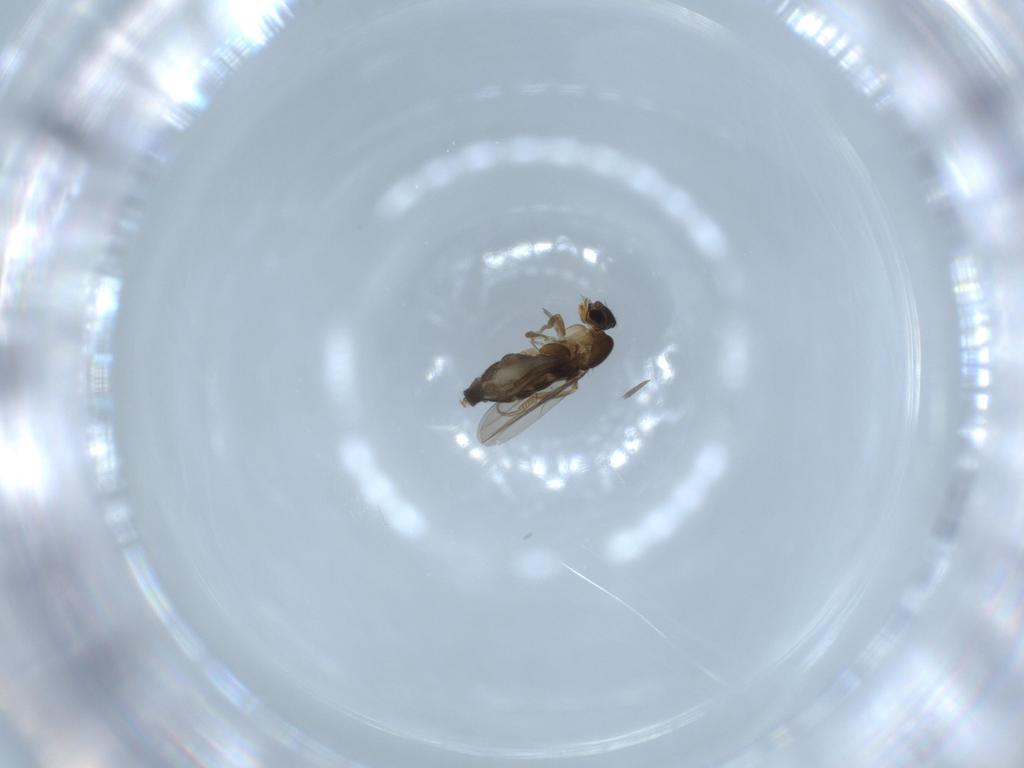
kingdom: Animalia
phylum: Arthropoda
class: Insecta
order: Diptera
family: Phoridae
